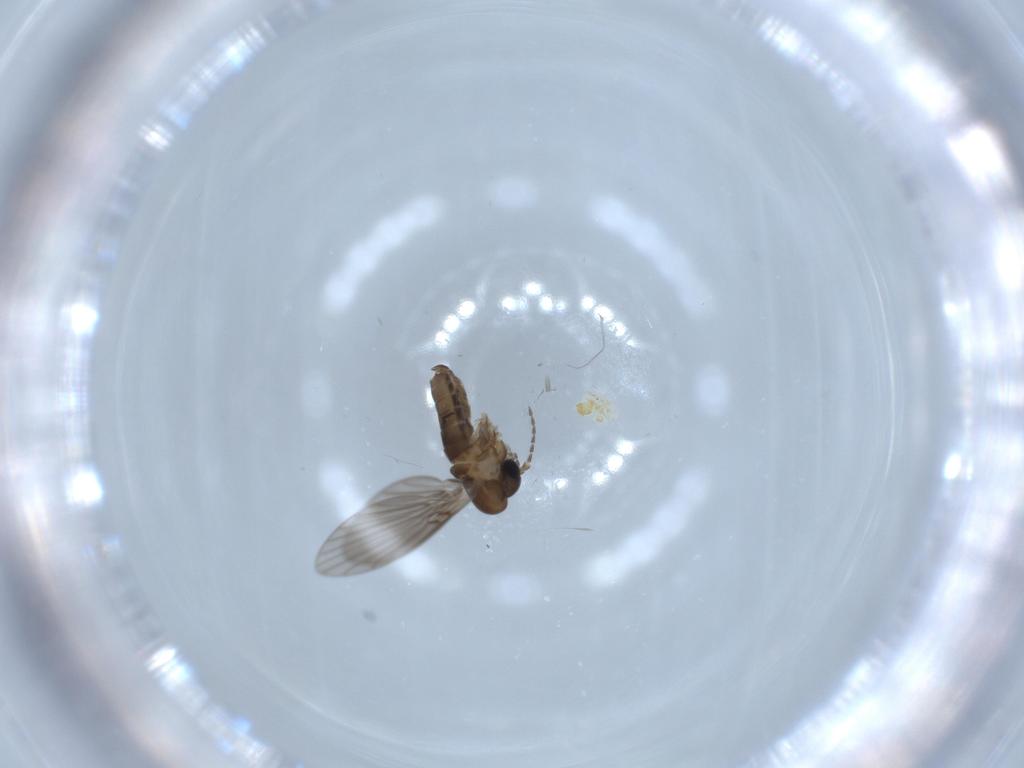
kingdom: Animalia
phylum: Arthropoda
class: Insecta
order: Diptera
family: Psychodidae
